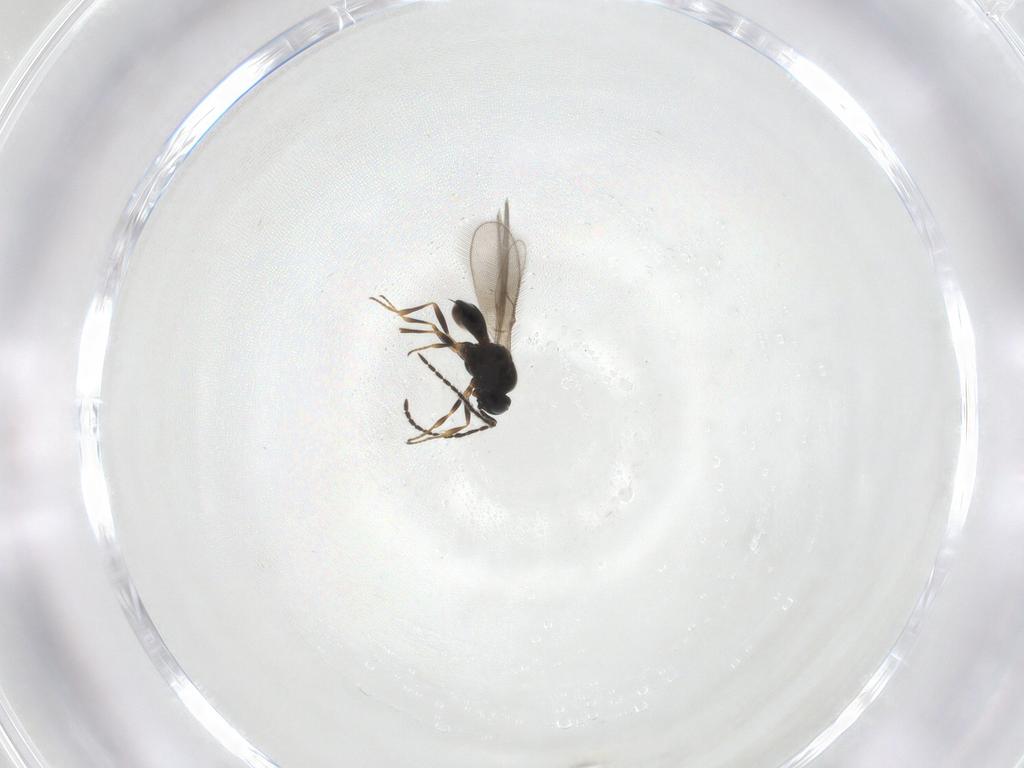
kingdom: Animalia
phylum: Arthropoda
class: Insecta
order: Hymenoptera
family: Scelionidae
